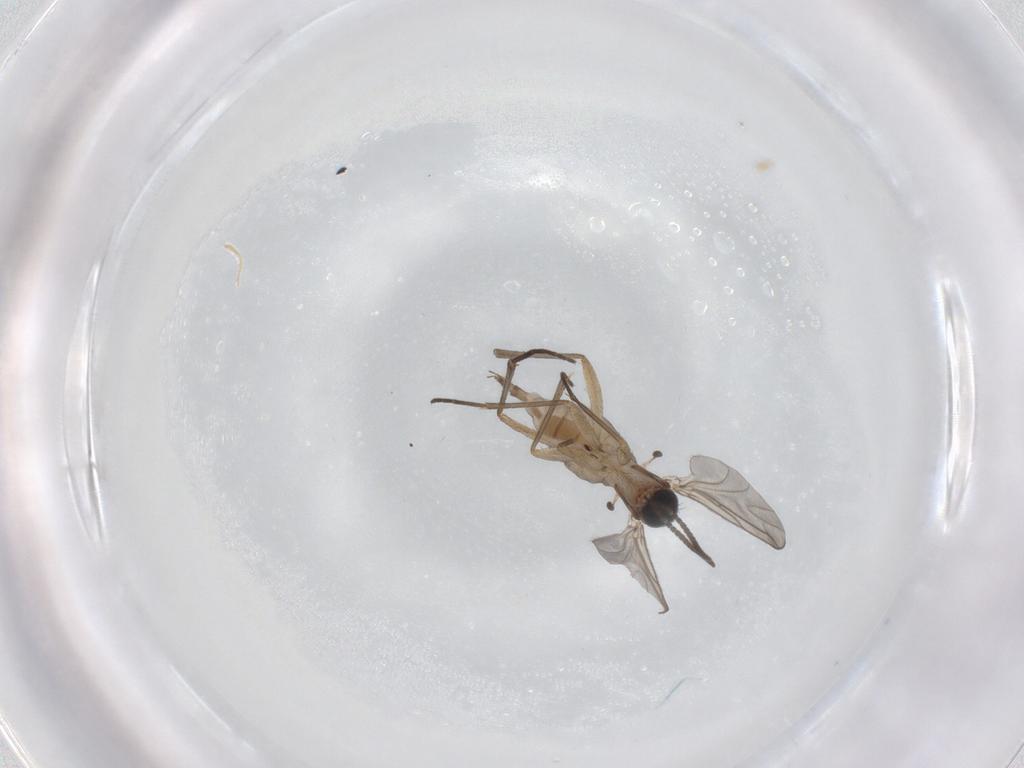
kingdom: Animalia
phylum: Arthropoda
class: Insecta
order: Diptera
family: Sciaridae
